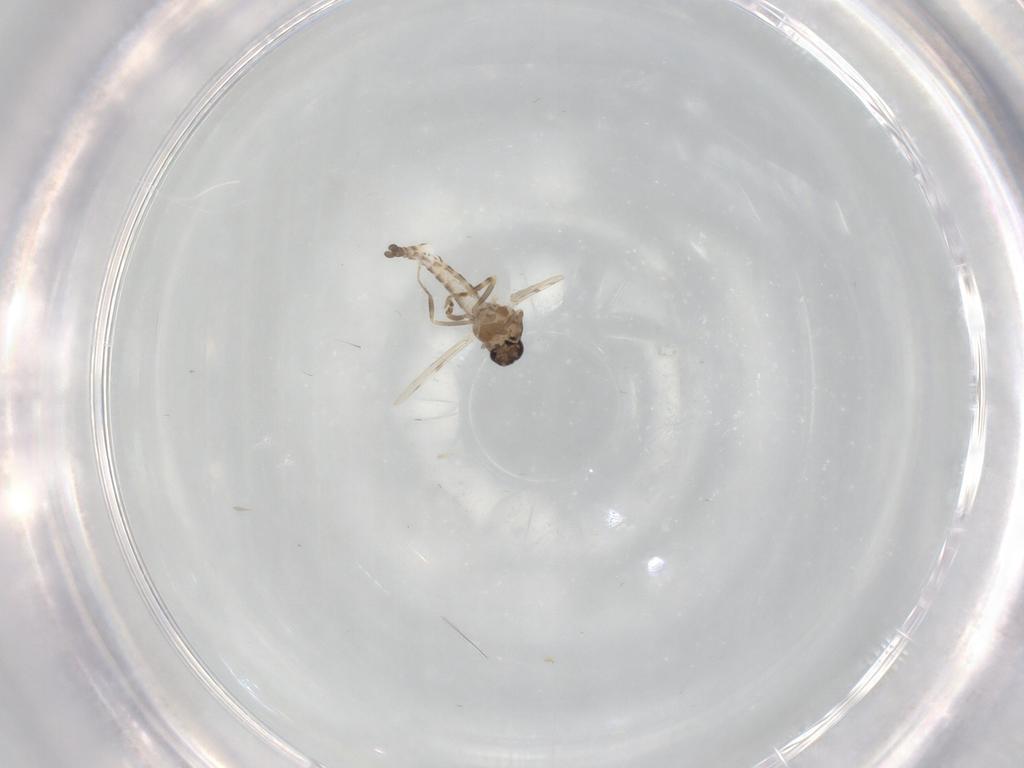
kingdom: Animalia
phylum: Arthropoda
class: Insecta
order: Diptera
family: Ceratopogonidae
